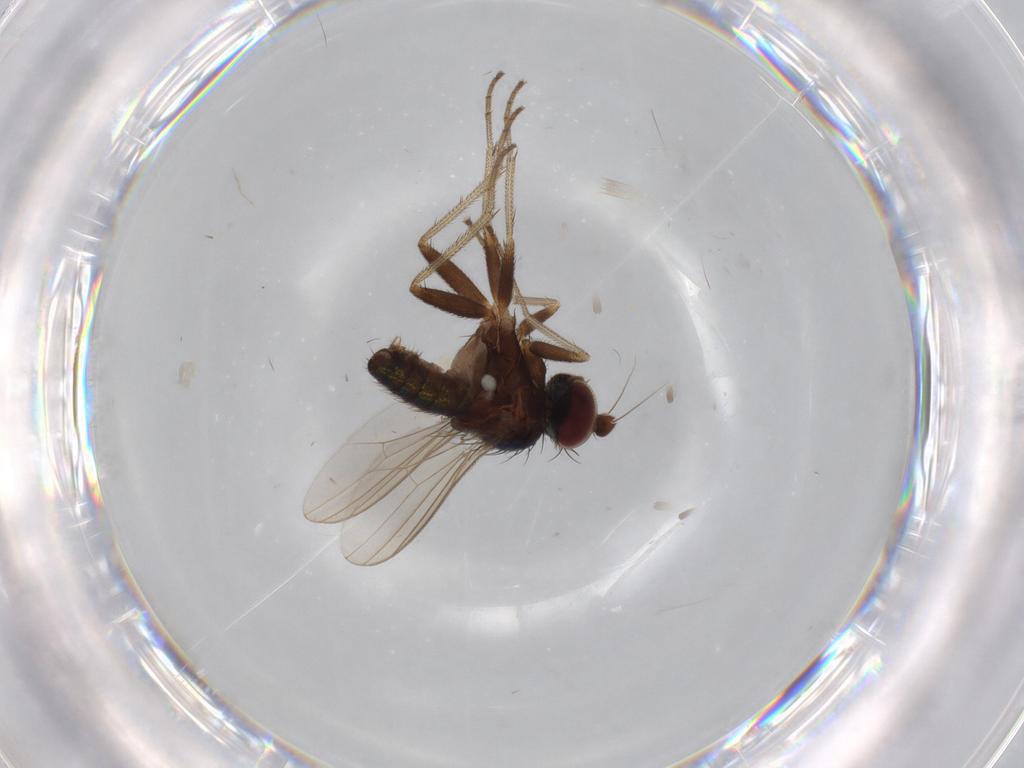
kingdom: Animalia
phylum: Arthropoda
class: Insecta
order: Diptera
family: Dolichopodidae
